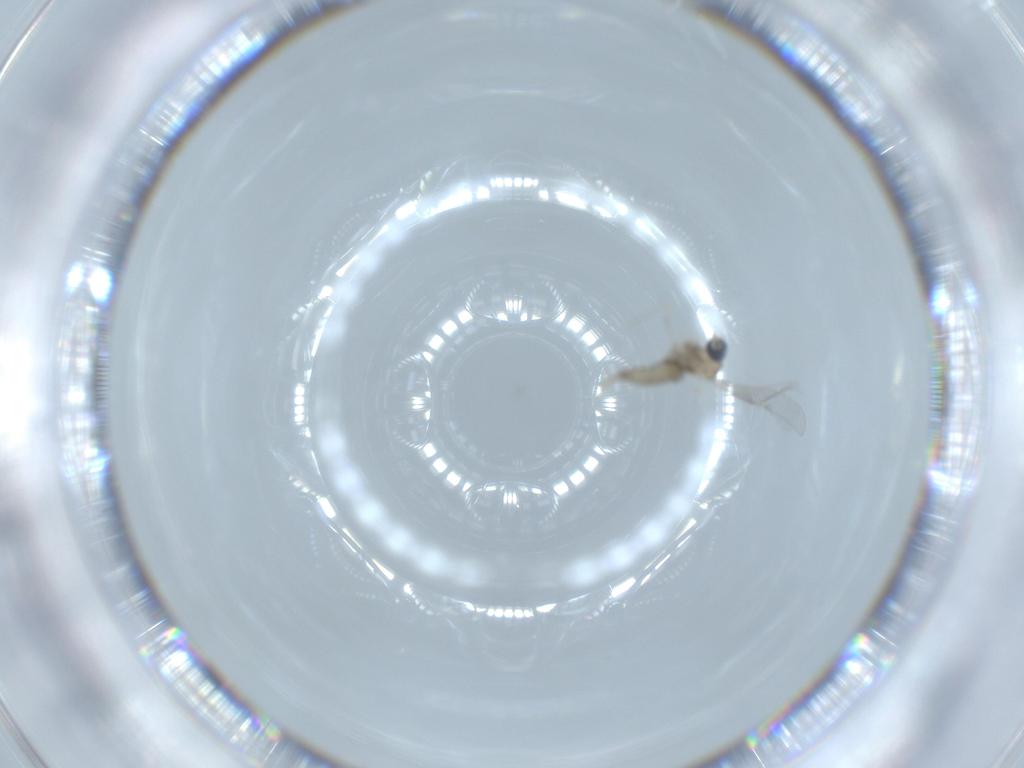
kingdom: Animalia
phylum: Arthropoda
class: Insecta
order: Diptera
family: Cecidomyiidae
